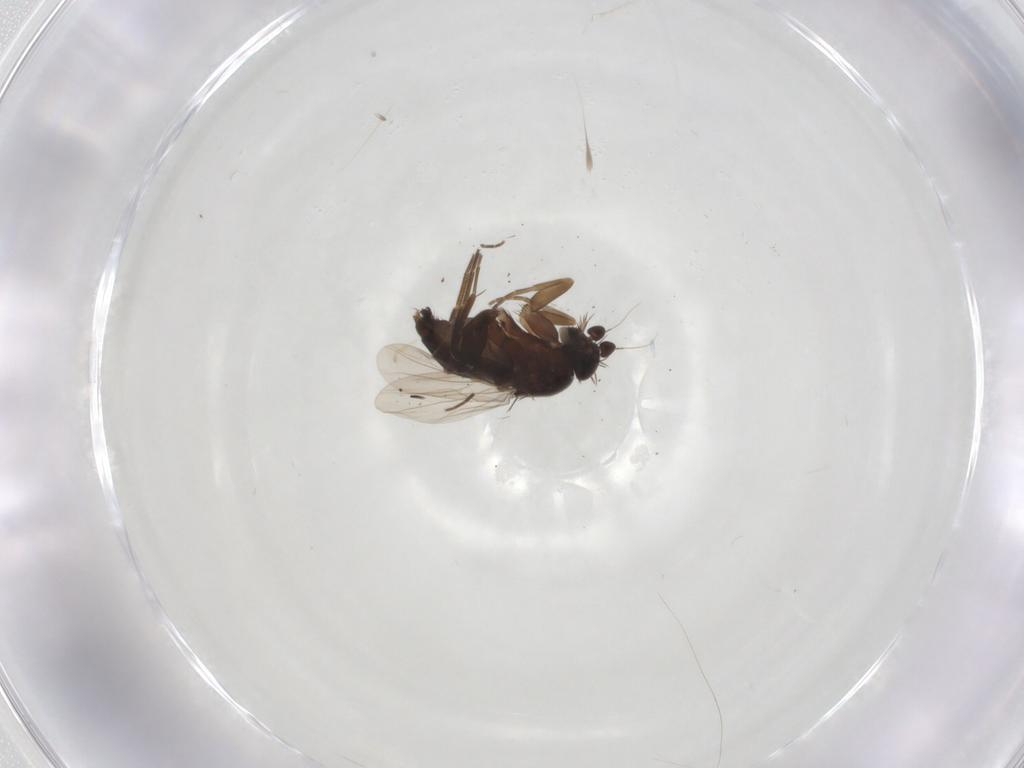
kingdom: Animalia
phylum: Arthropoda
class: Insecta
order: Diptera
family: Phoridae
